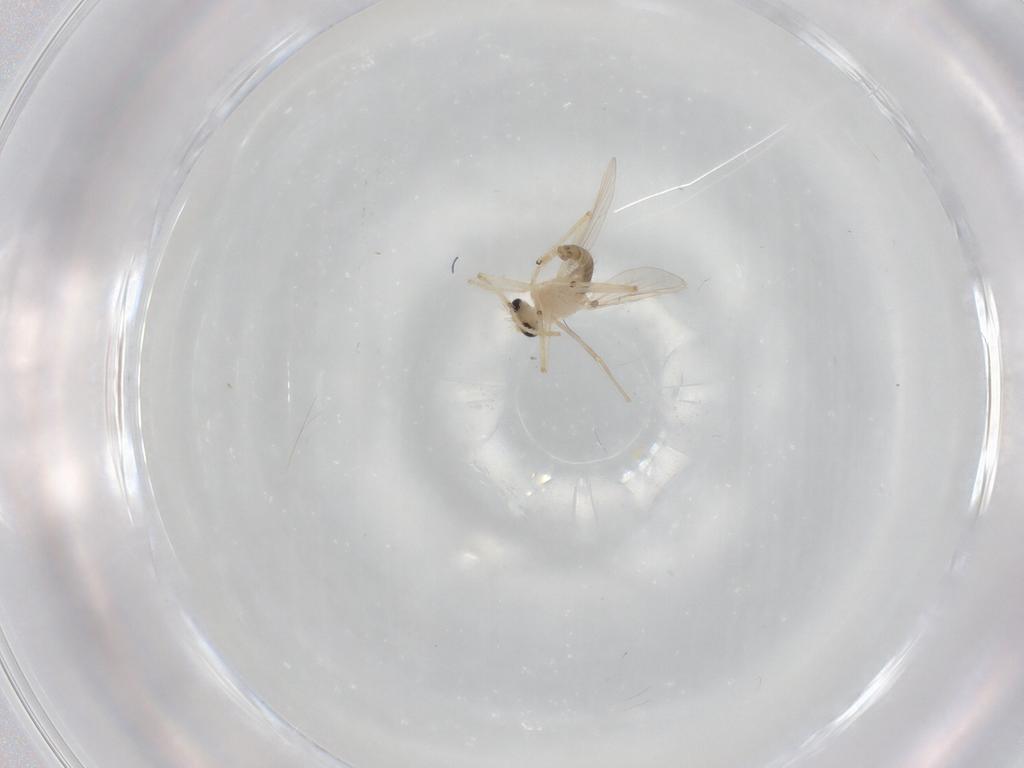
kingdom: Animalia
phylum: Arthropoda
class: Insecta
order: Diptera
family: Chironomidae
